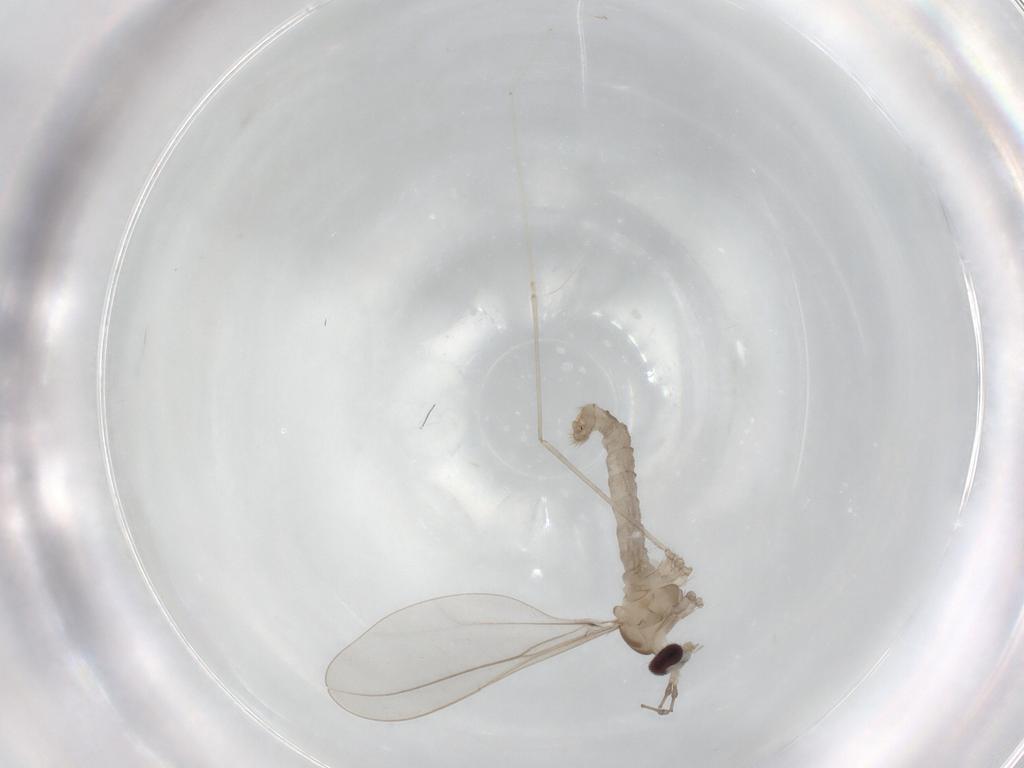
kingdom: Animalia
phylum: Arthropoda
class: Insecta
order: Diptera
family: Cecidomyiidae
